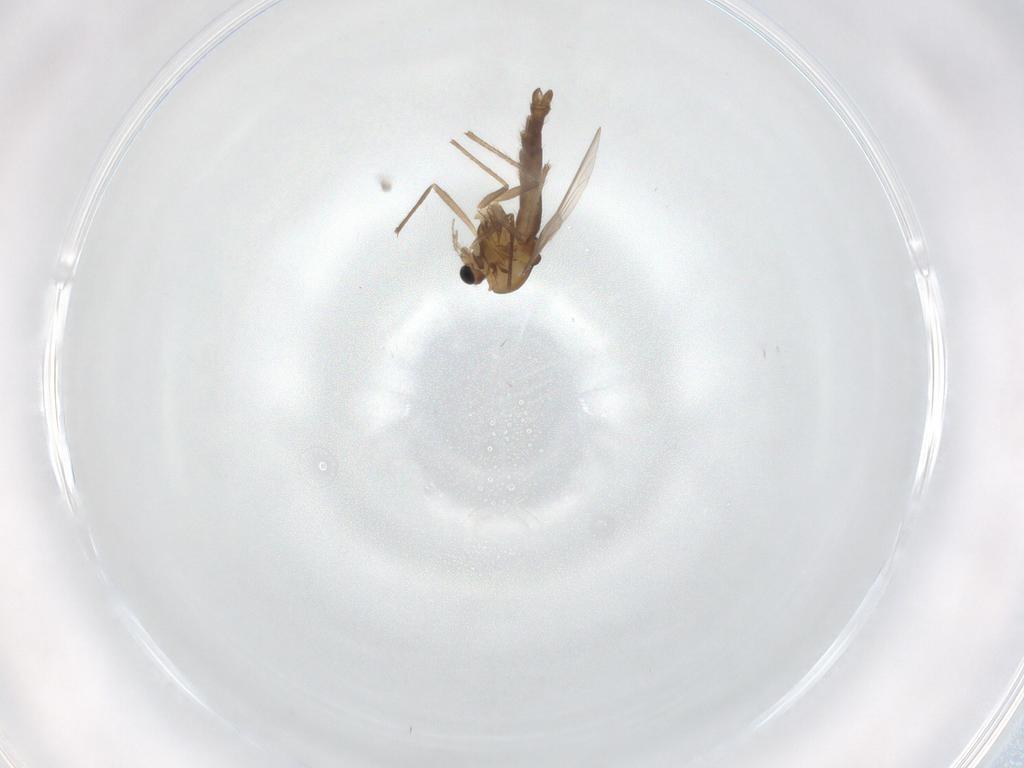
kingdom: Animalia
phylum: Arthropoda
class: Insecta
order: Diptera
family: Chironomidae
